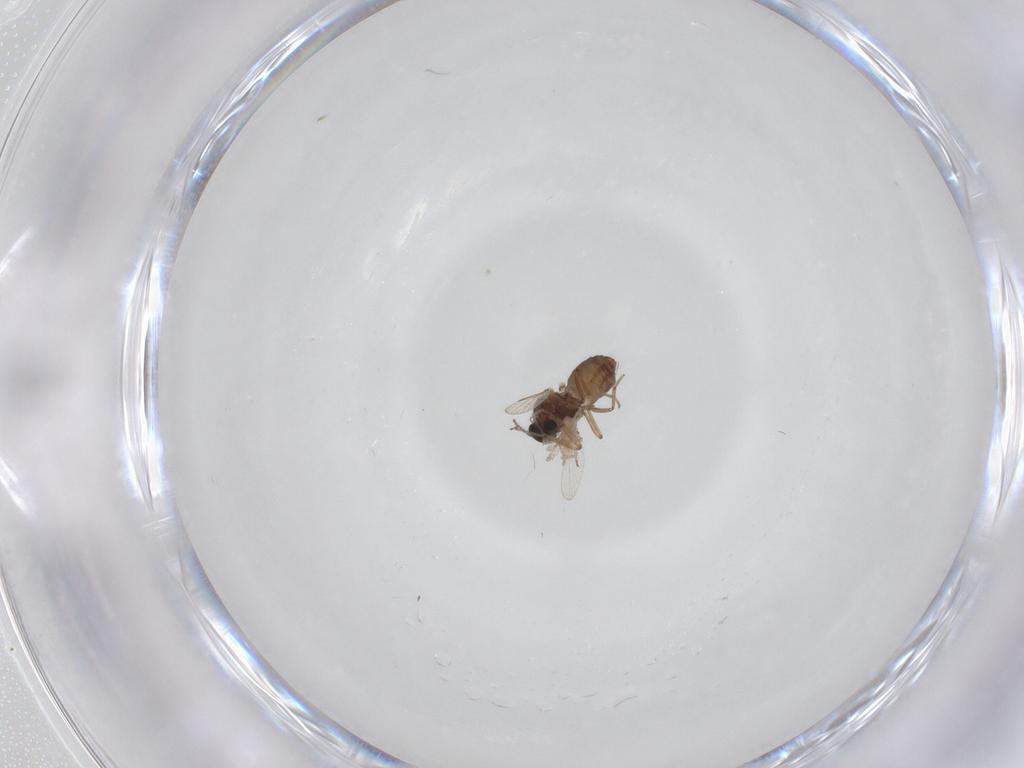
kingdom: Animalia
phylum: Arthropoda
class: Insecta
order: Diptera
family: Ceratopogonidae
